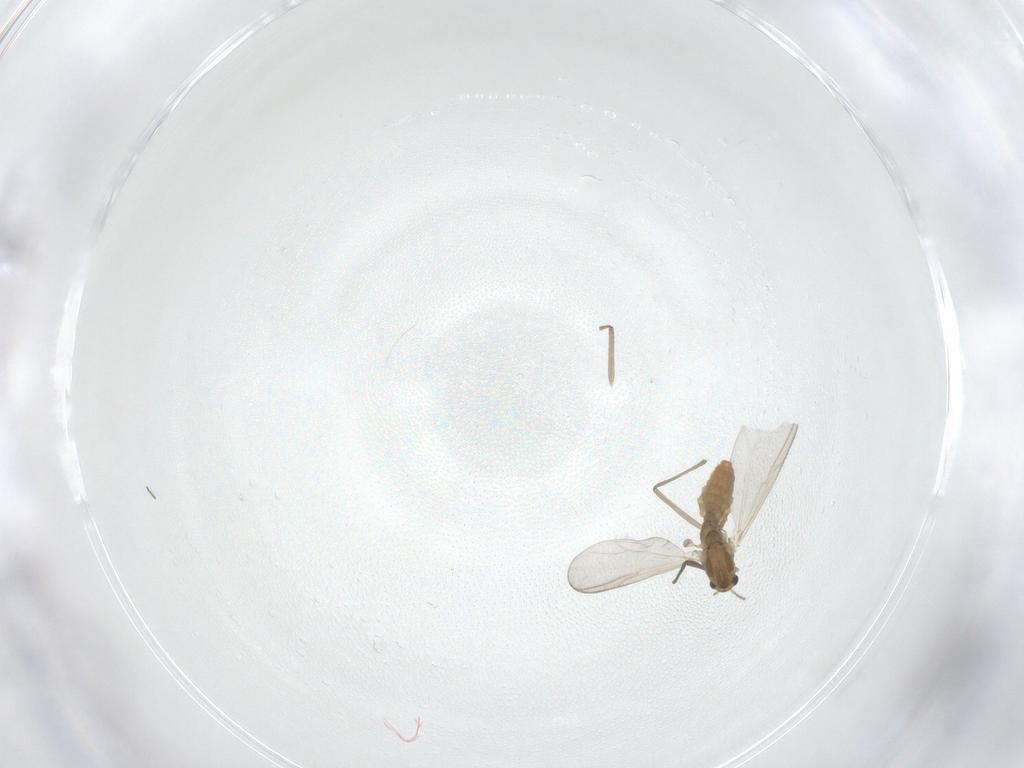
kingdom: Animalia
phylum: Arthropoda
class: Insecta
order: Diptera
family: Chironomidae
